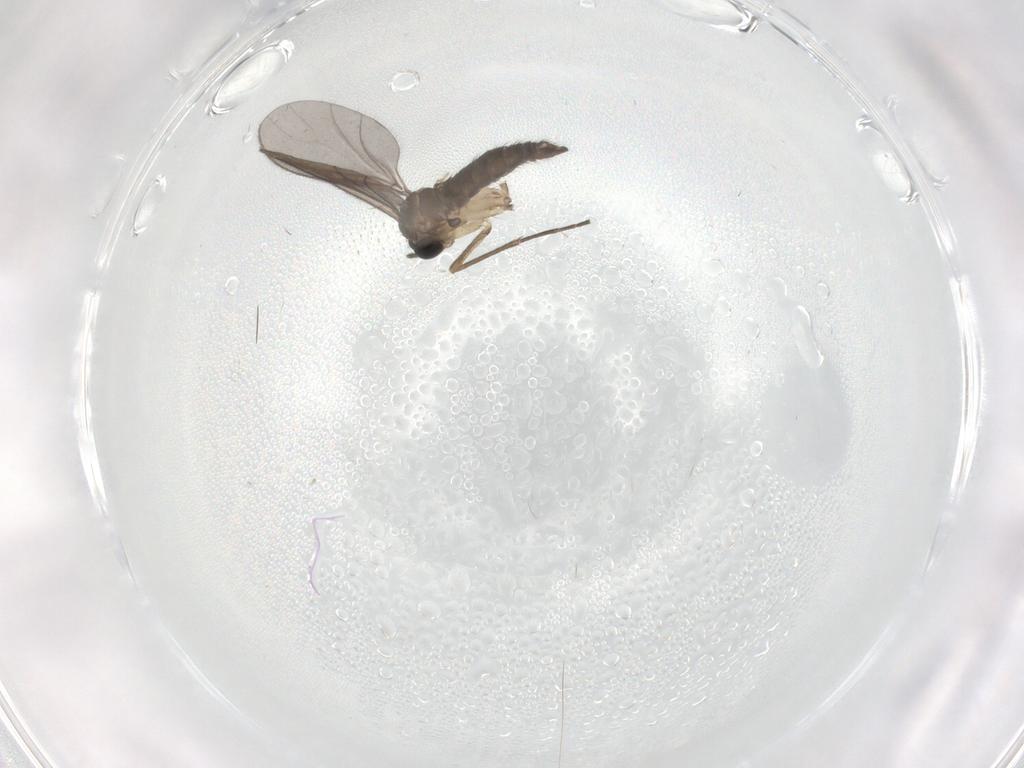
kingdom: Animalia
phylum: Arthropoda
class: Insecta
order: Diptera
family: Sciaridae
